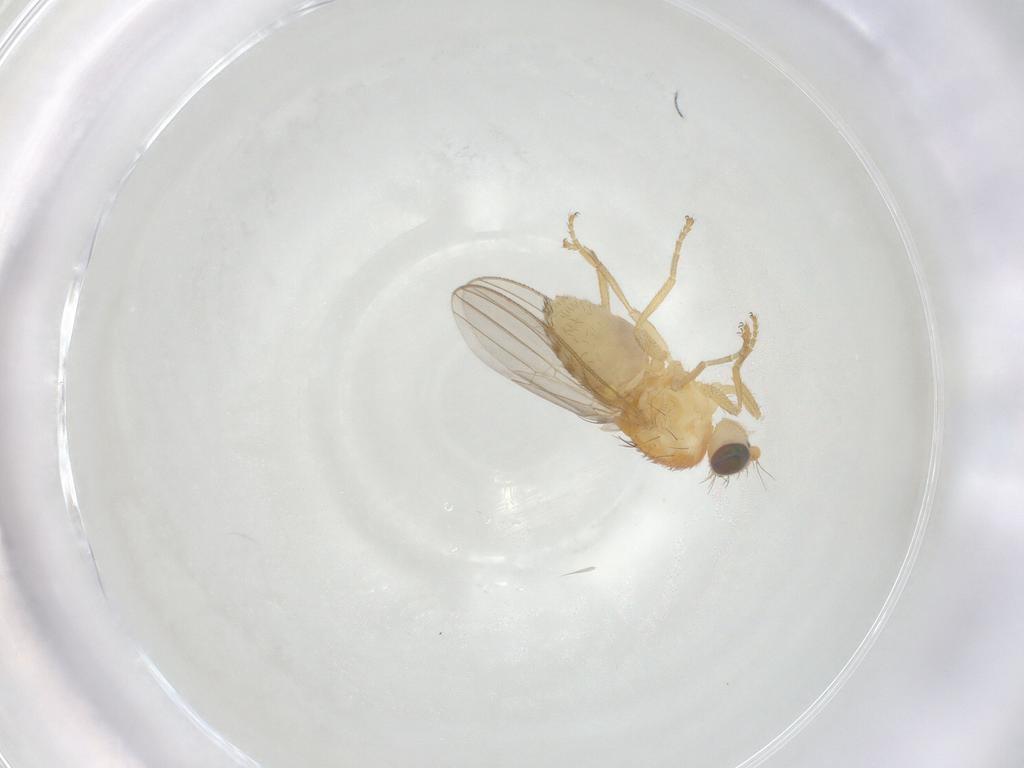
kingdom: Animalia
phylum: Arthropoda
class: Insecta
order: Diptera
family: Chyromyidae
